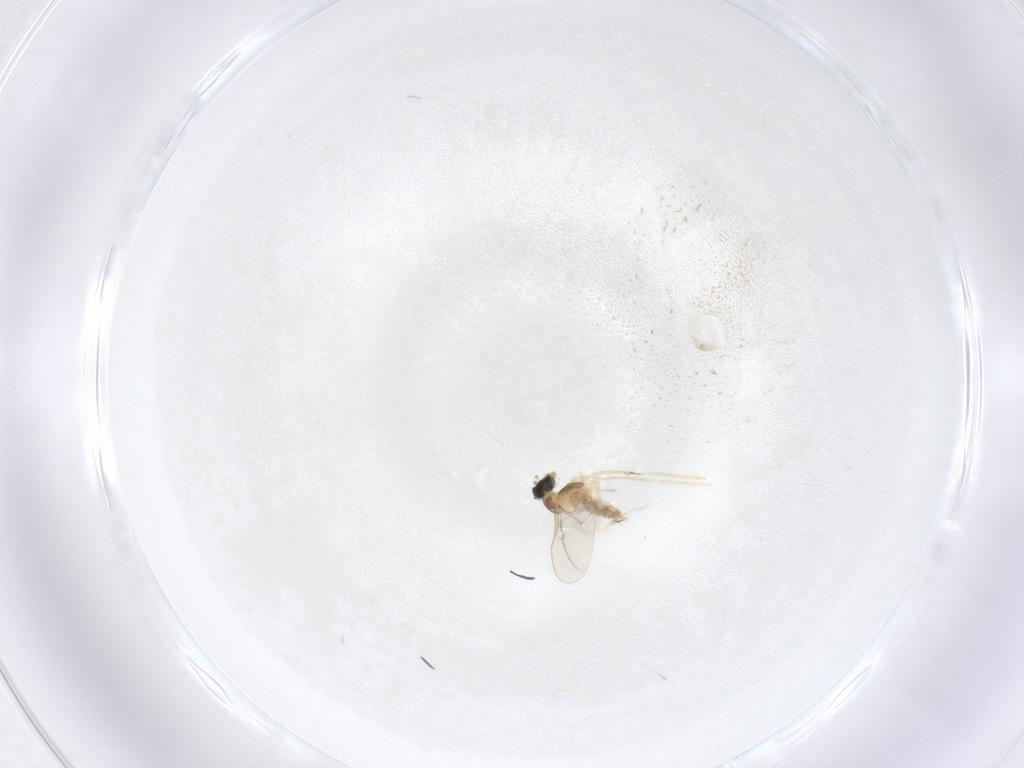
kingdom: Animalia
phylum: Arthropoda
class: Insecta
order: Diptera
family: Cecidomyiidae
